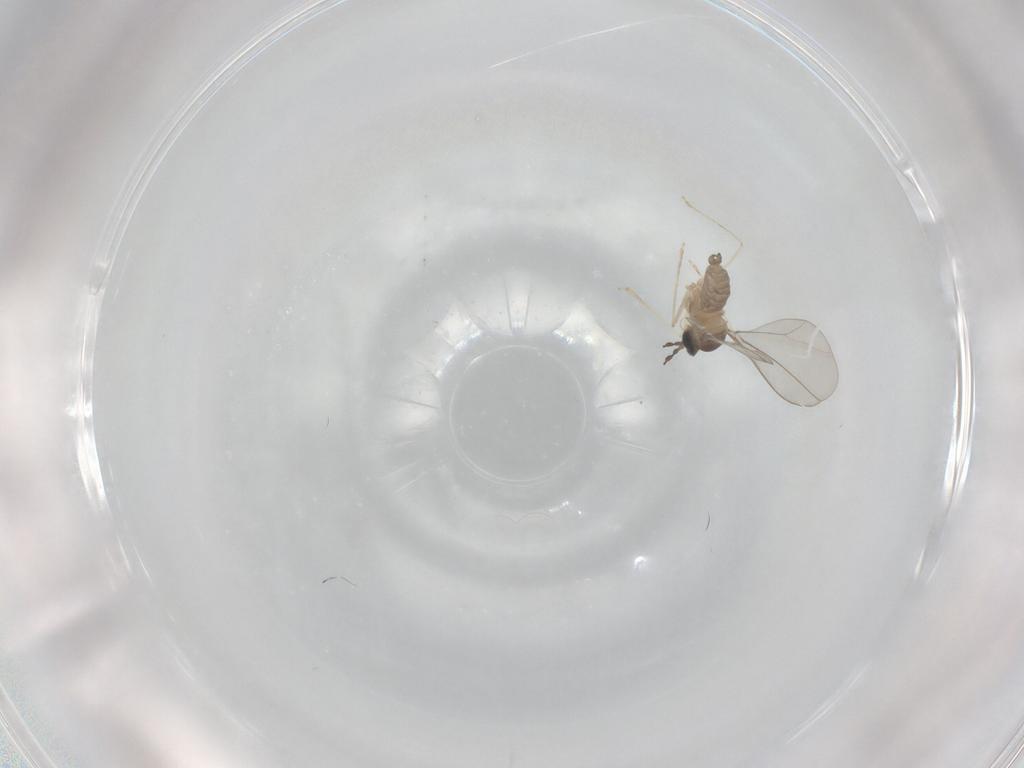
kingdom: Animalia
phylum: Arthropoda
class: Insecta
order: Diptera
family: Cecidomyiidae
